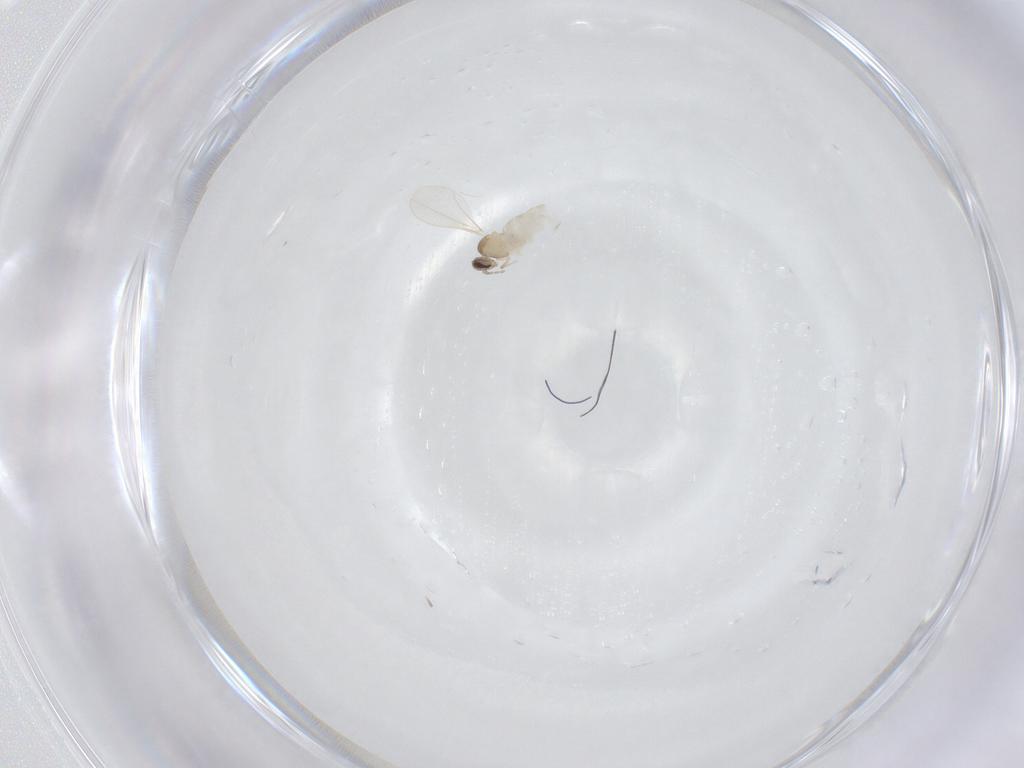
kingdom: Animalia
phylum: Arthropoda
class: Insecta
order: Diptera
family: Cecidomyiidae
